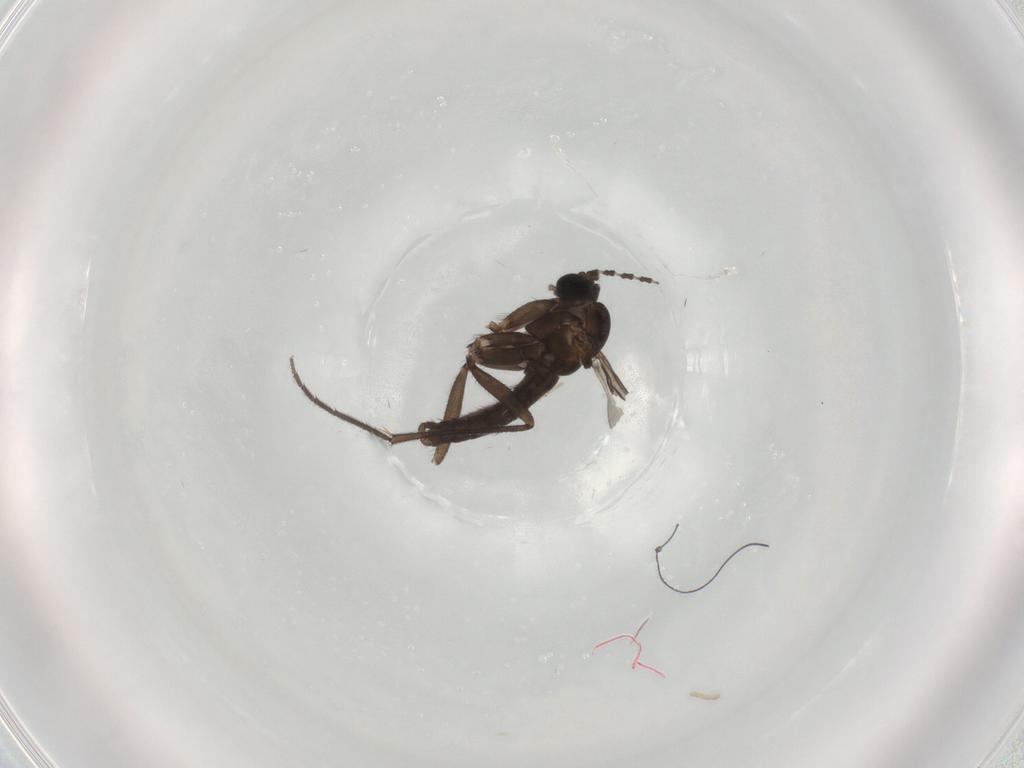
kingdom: Animalia
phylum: Arthropoda
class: Insecta
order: Diptera
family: Sciaridae
